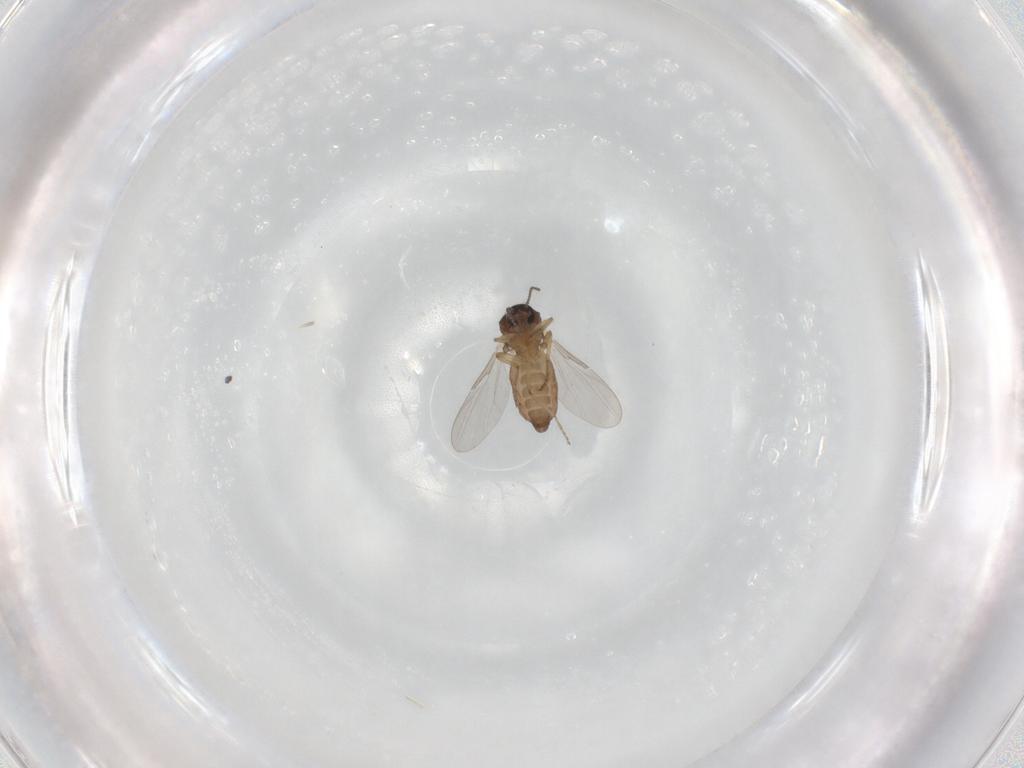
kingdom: Animalia
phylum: Arthropoda
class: Insecta
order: Diptera
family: Ceratopogonidae
